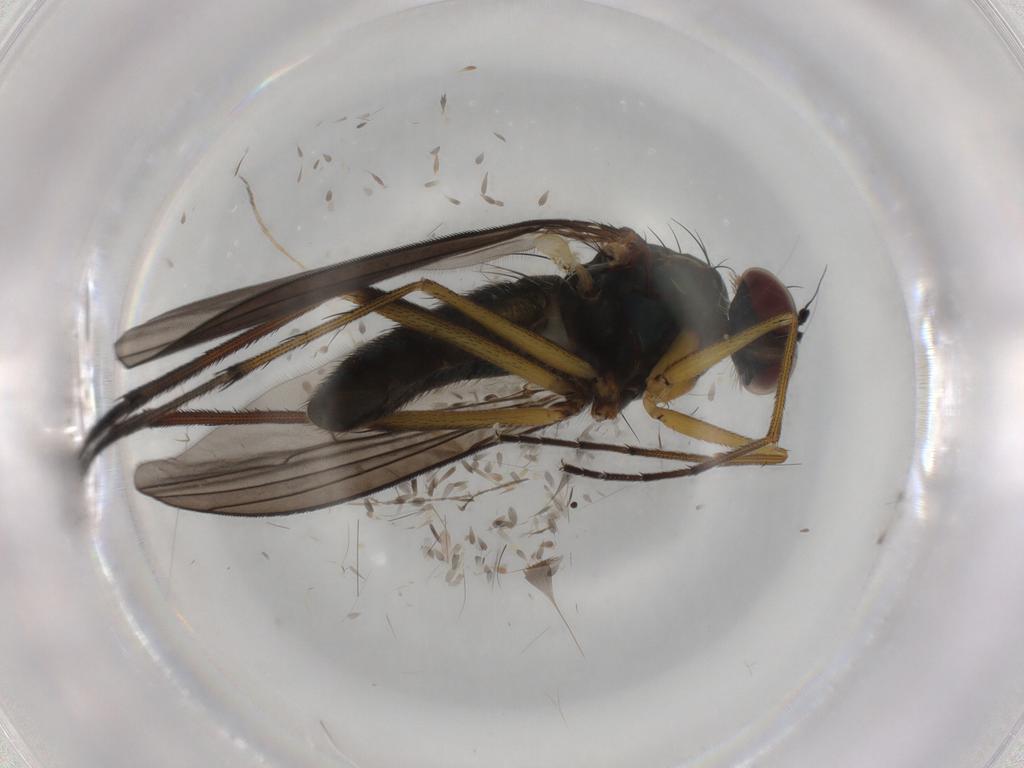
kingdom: Animalia
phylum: Arthropoda
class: Insecta
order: Diptera
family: Dolichopodidae
